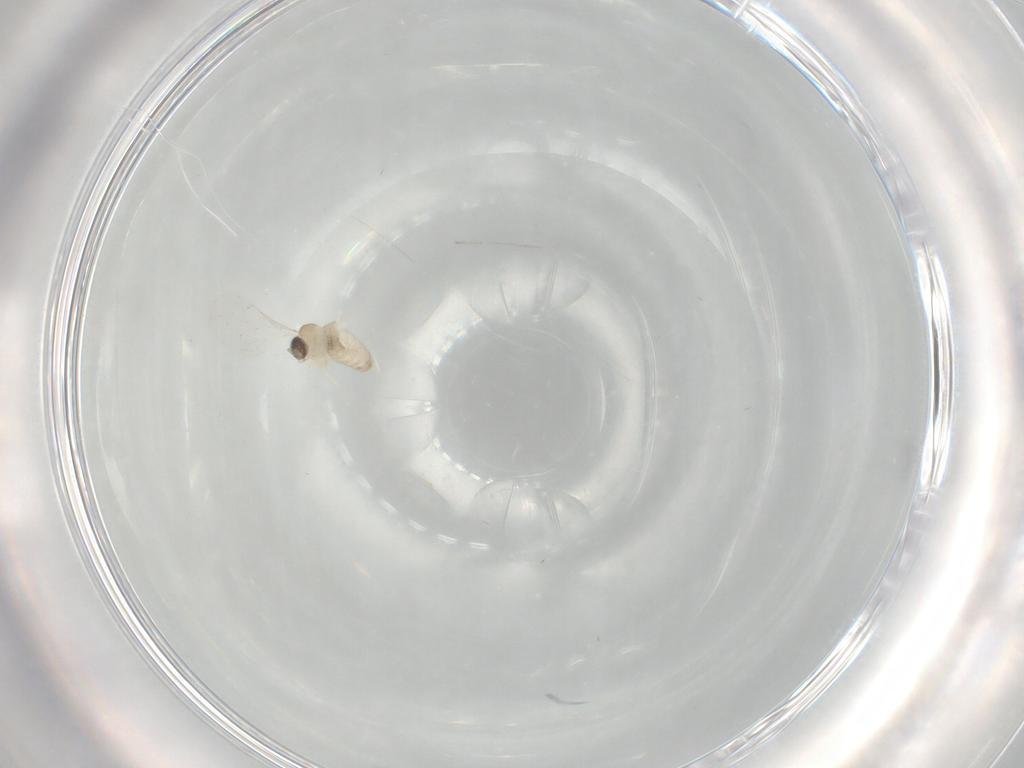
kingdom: Animalia
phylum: Arthropoda
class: Insecta
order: Diptera
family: Cecidomyiidae
